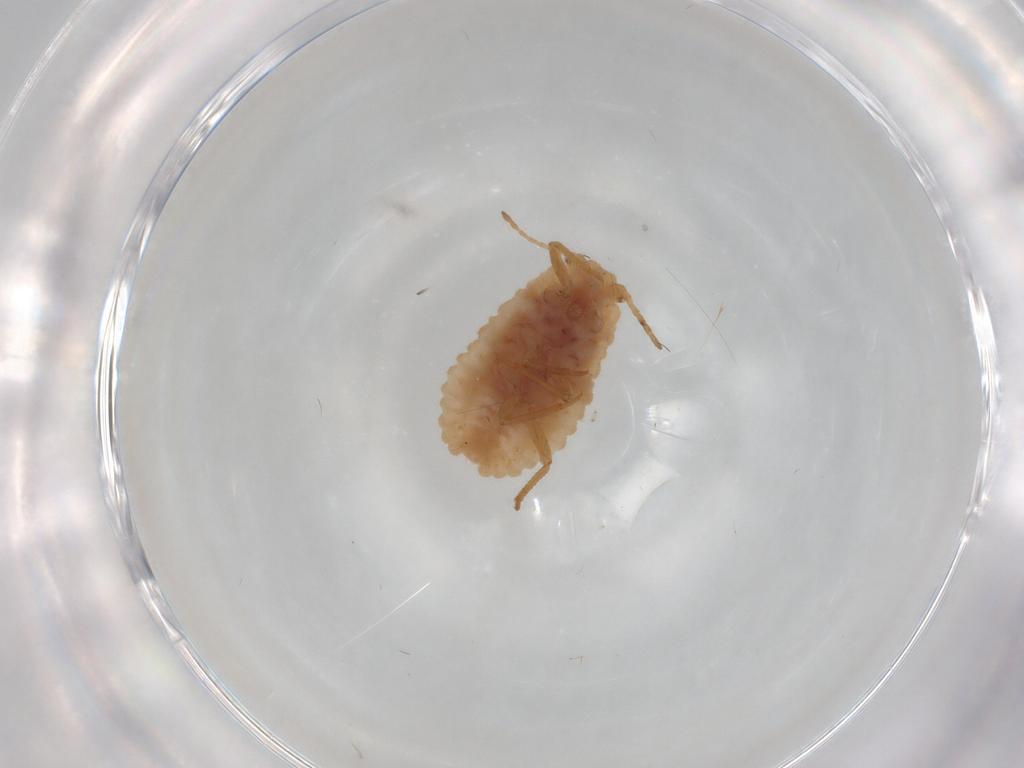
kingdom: Animalia
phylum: Arthropoda
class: Insecta
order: Hemiptera
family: Coccoidea_incertae_sedis
